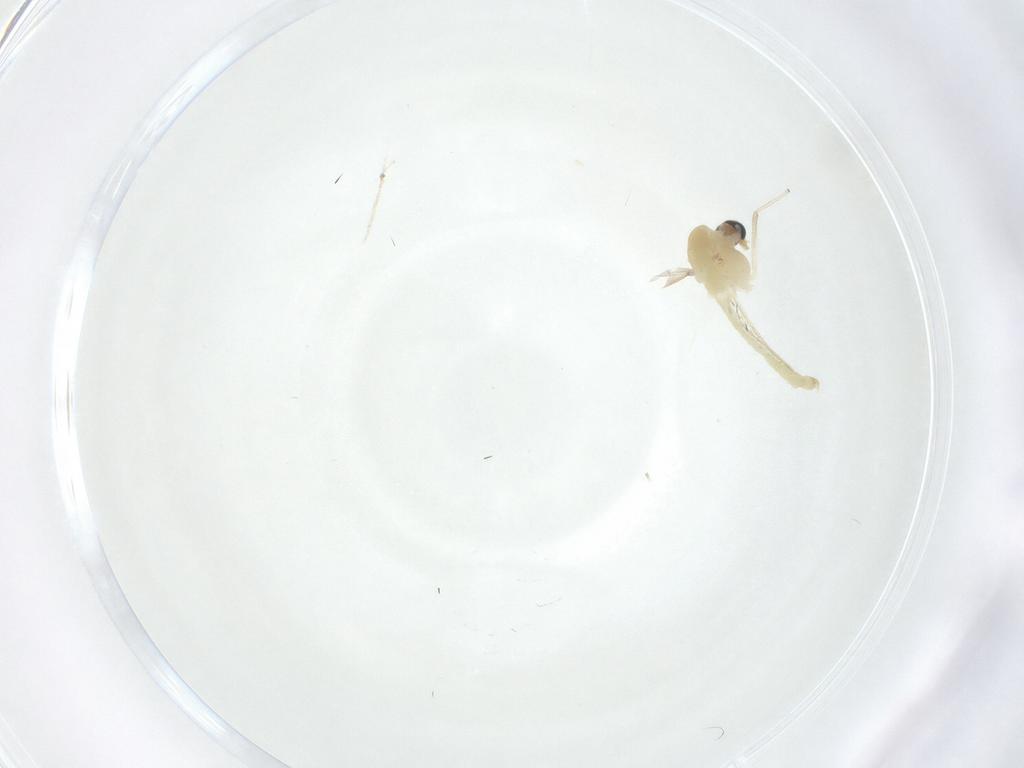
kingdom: Animalia
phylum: Arthropoda
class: Insecta
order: Diptera
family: Chironomidae
